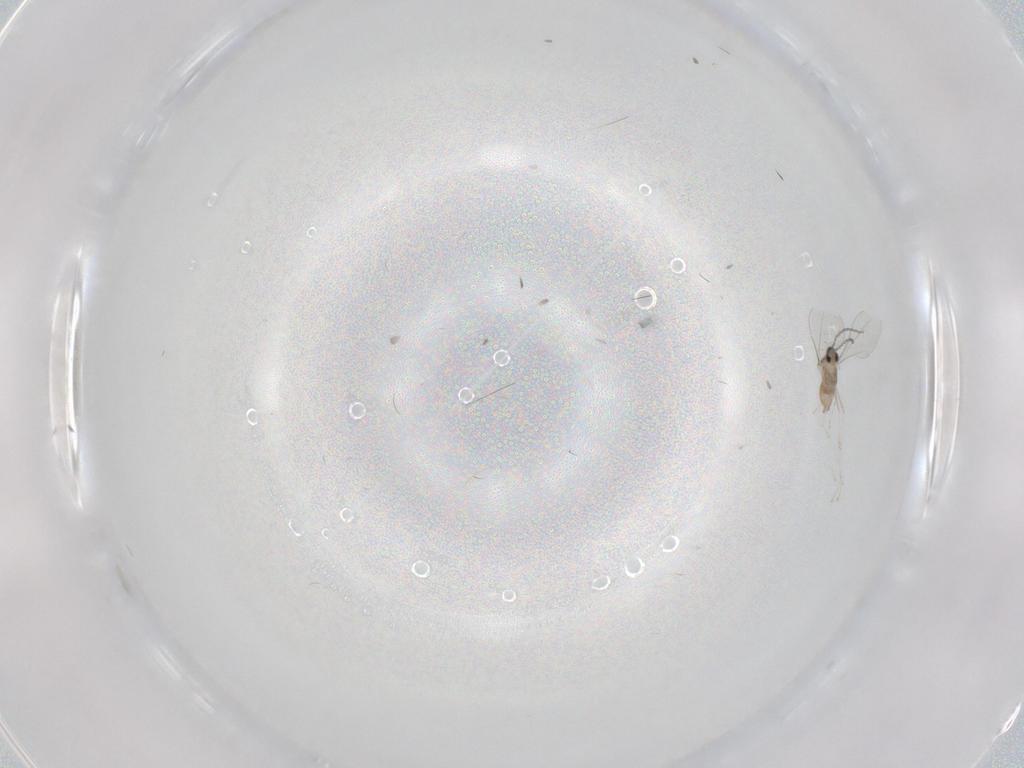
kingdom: Animalia
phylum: Arthropoda
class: Insecta
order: Diptera
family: Cecidomyiidae
